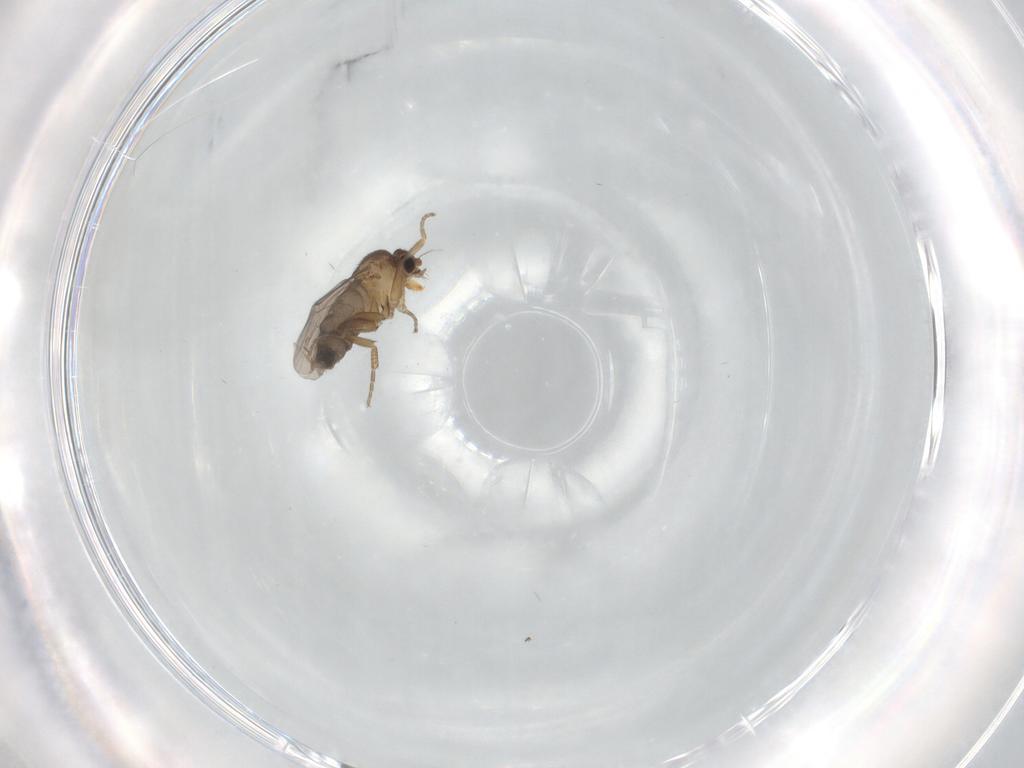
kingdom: Animalia
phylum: Arthropoda
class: Insecta
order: Diptera
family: Chironomidae
